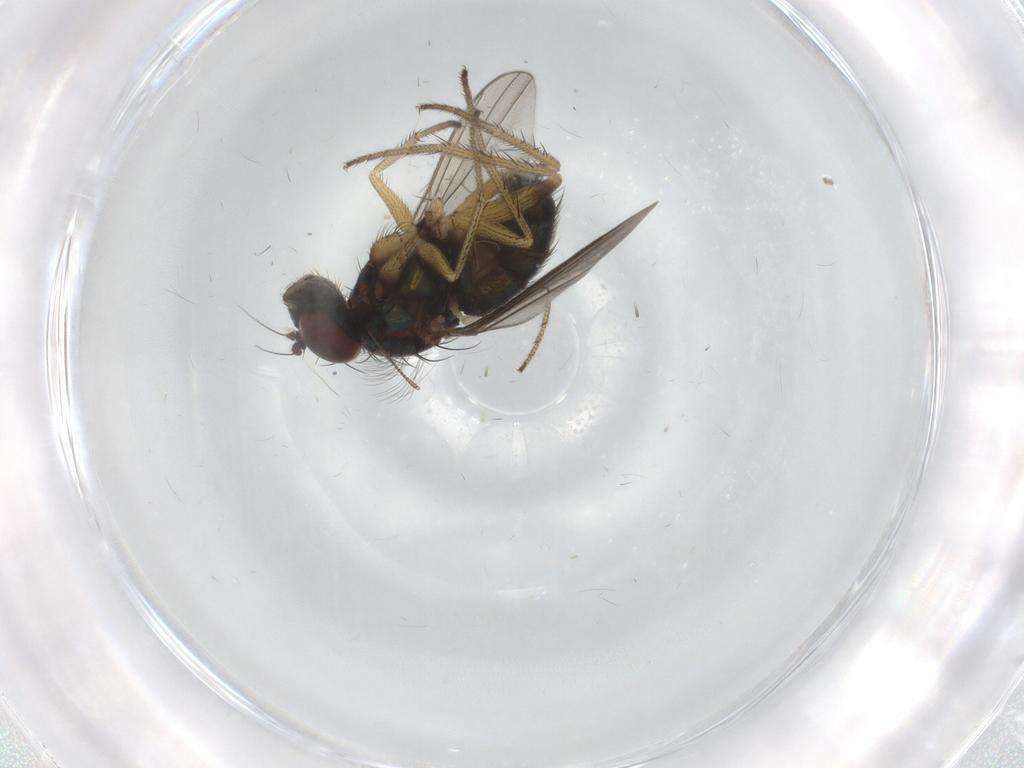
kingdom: Animalia
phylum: Arthropoda
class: Insecta
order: Diptera
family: Dolichopodidae
